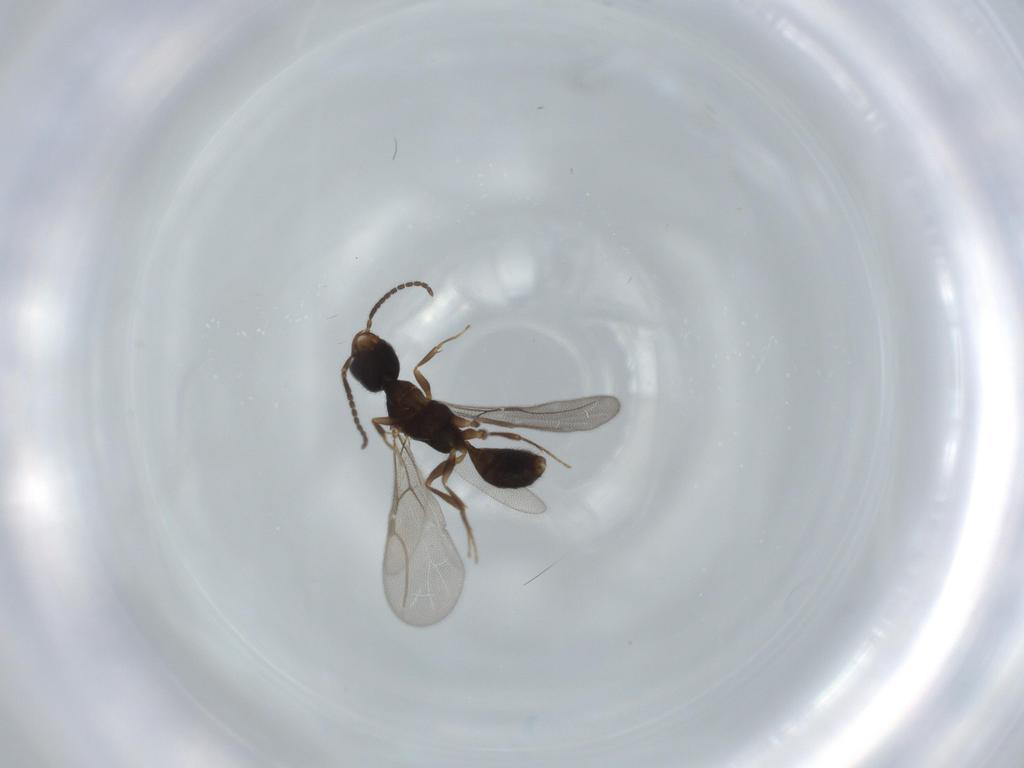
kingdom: Animalia
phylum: Arthropoda
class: Insecta
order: Hymenoptera
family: Bethylidae
